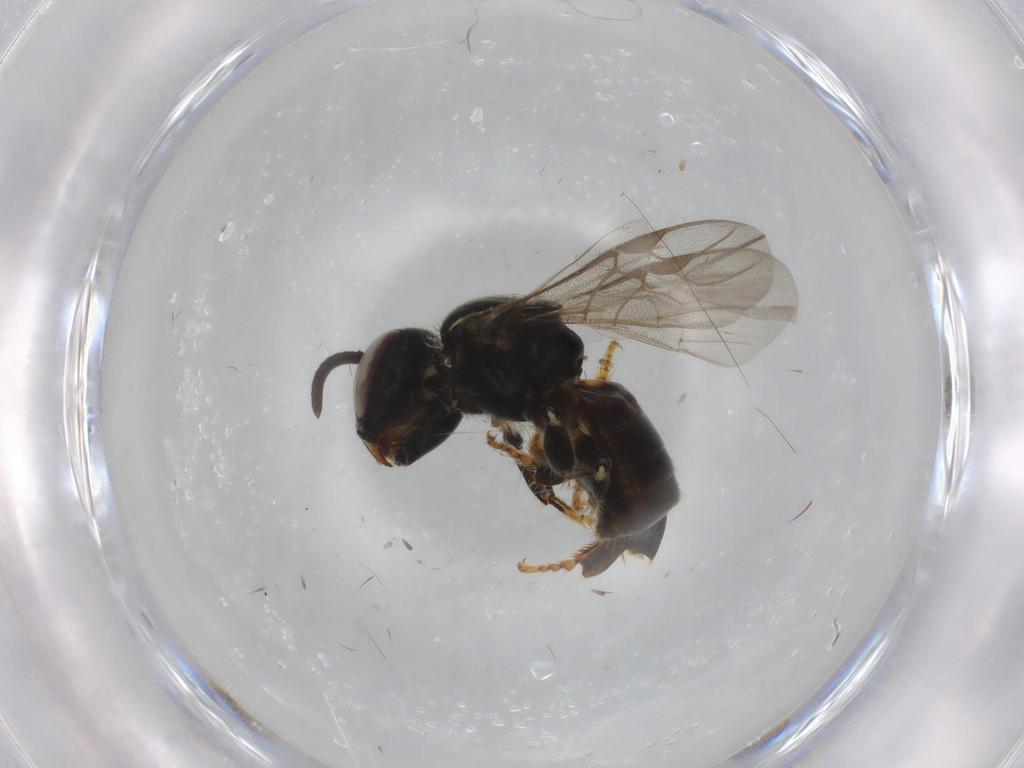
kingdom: Animalia
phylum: Arthropoda
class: Insecta
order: Hymenoptera
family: Apidae
